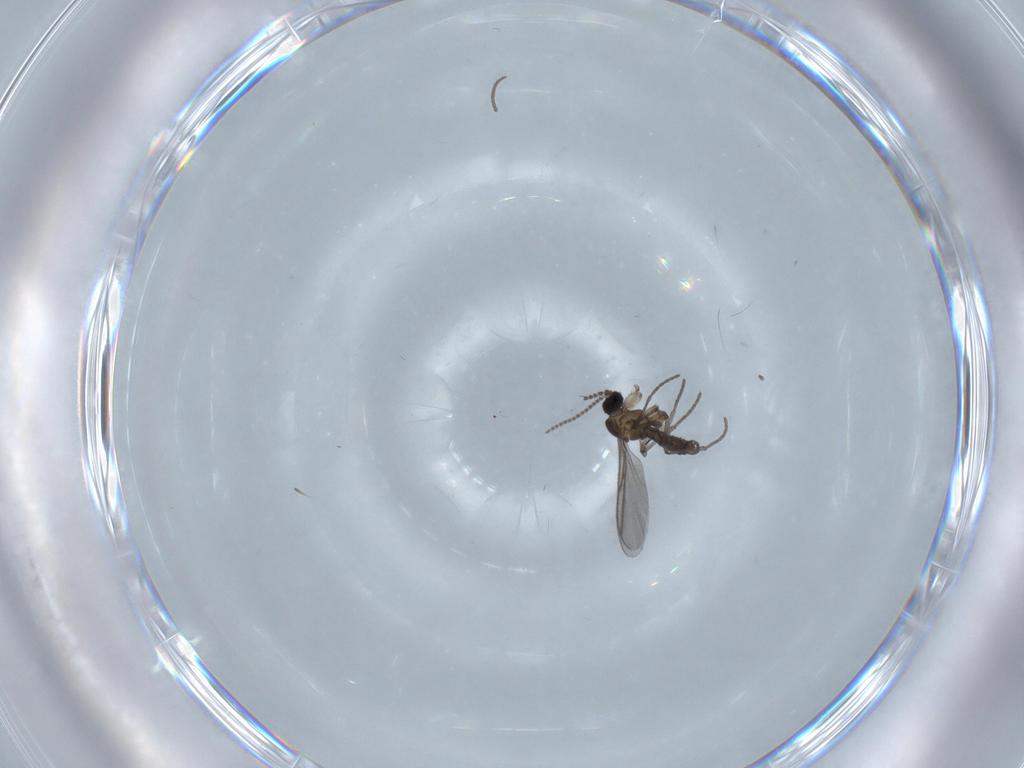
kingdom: Animalia
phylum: Arthropoda
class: Insecta
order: Diptera
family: Cecidomyiidae
